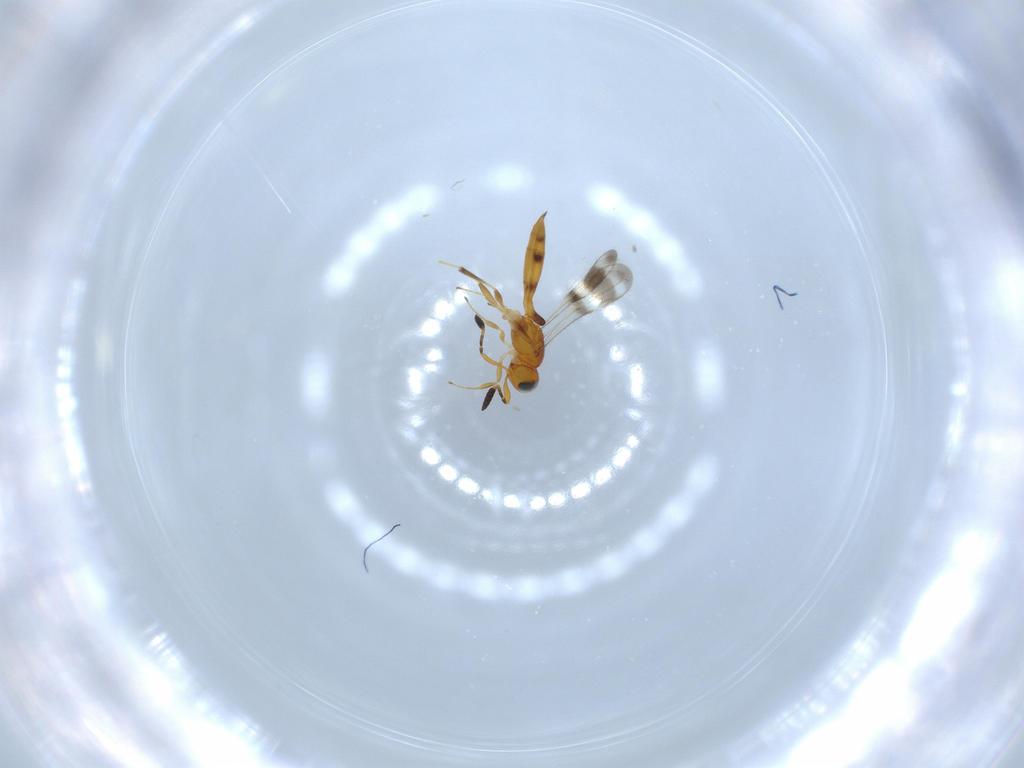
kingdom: Animalia
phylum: Arthropoda
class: Insecta
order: Hymenoptera
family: Scelionidae
